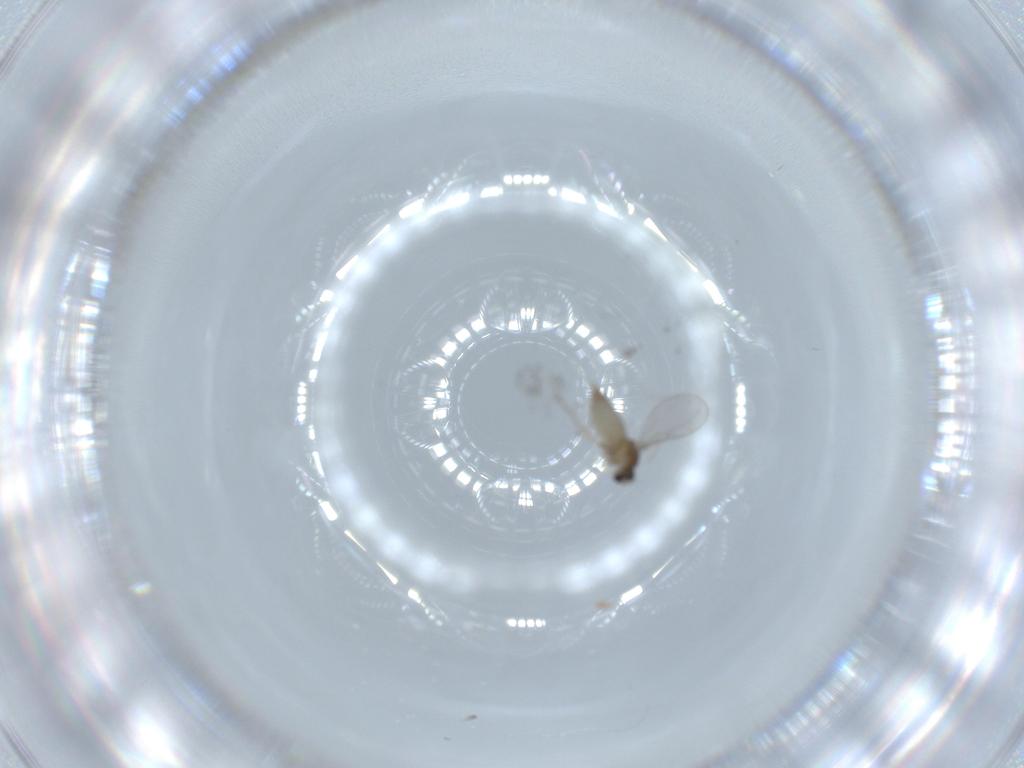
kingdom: Animalia
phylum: Arthropoda
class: Insecta
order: Diptera
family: Cecidomyiidae
